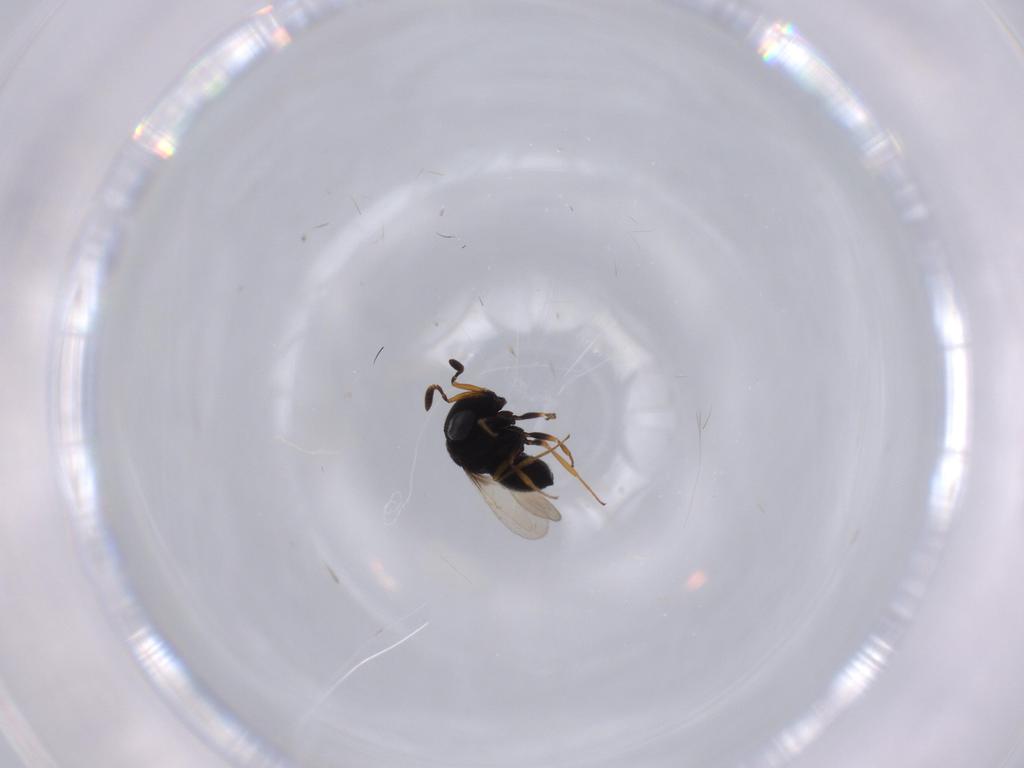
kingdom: Animalia
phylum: Arthropoda
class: Insecta
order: Hymenoptera
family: Scelionidae
